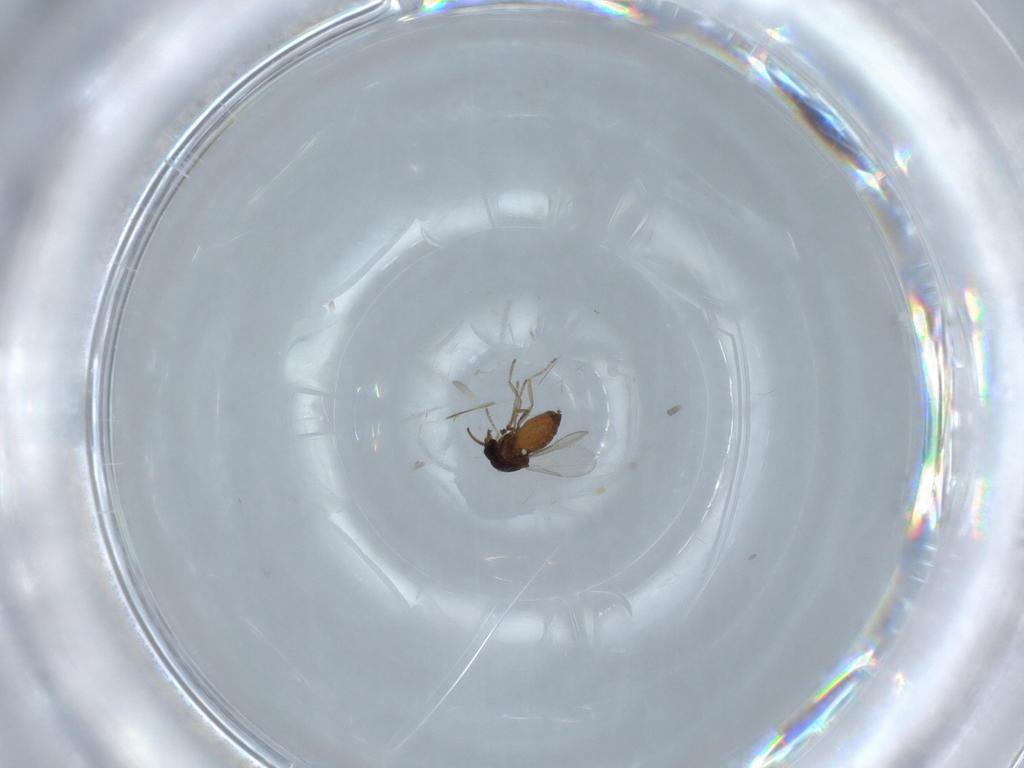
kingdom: Animalia
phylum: Arthropoda
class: Insecta
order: Diptera
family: Ceratopogonidae
